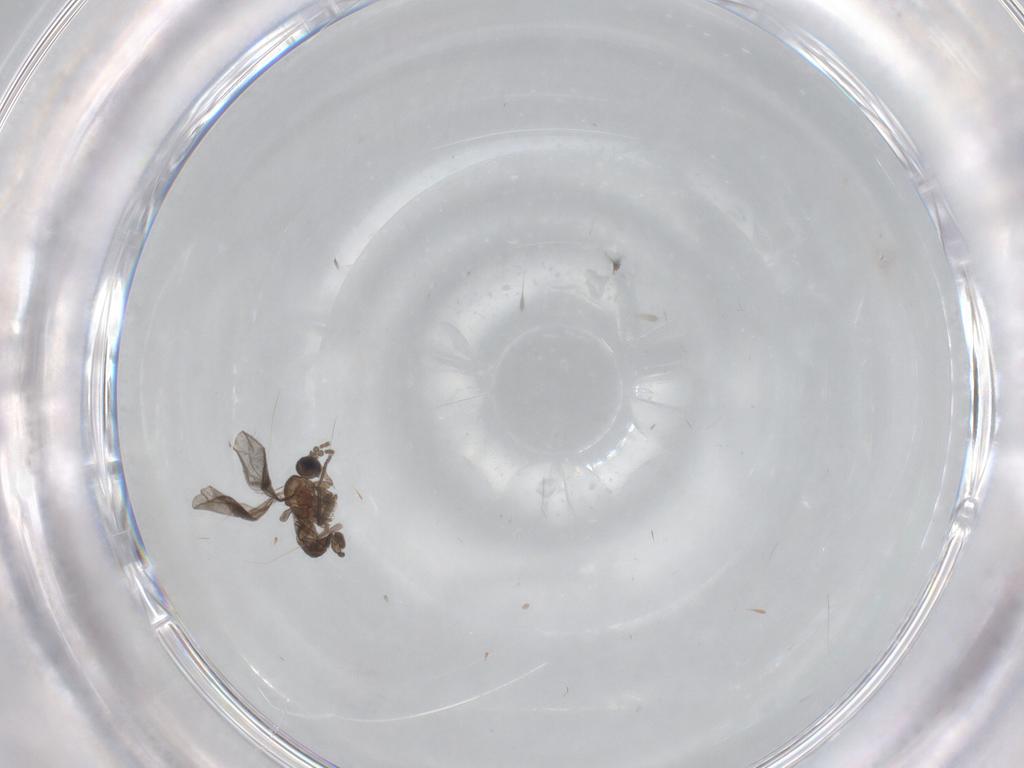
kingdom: Animalia
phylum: Arthropoda
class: Insecta
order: Diptera
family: Sciaridae
